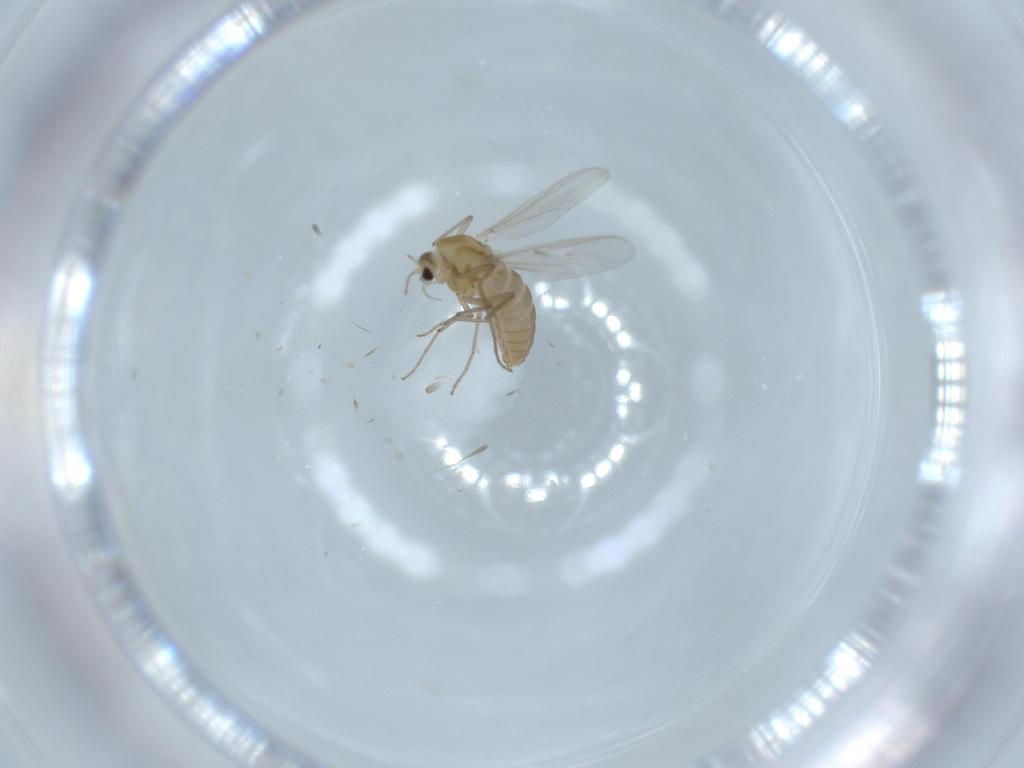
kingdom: Animalia
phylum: Arthropoda
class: Insecta
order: Diptera
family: Chironomidae
